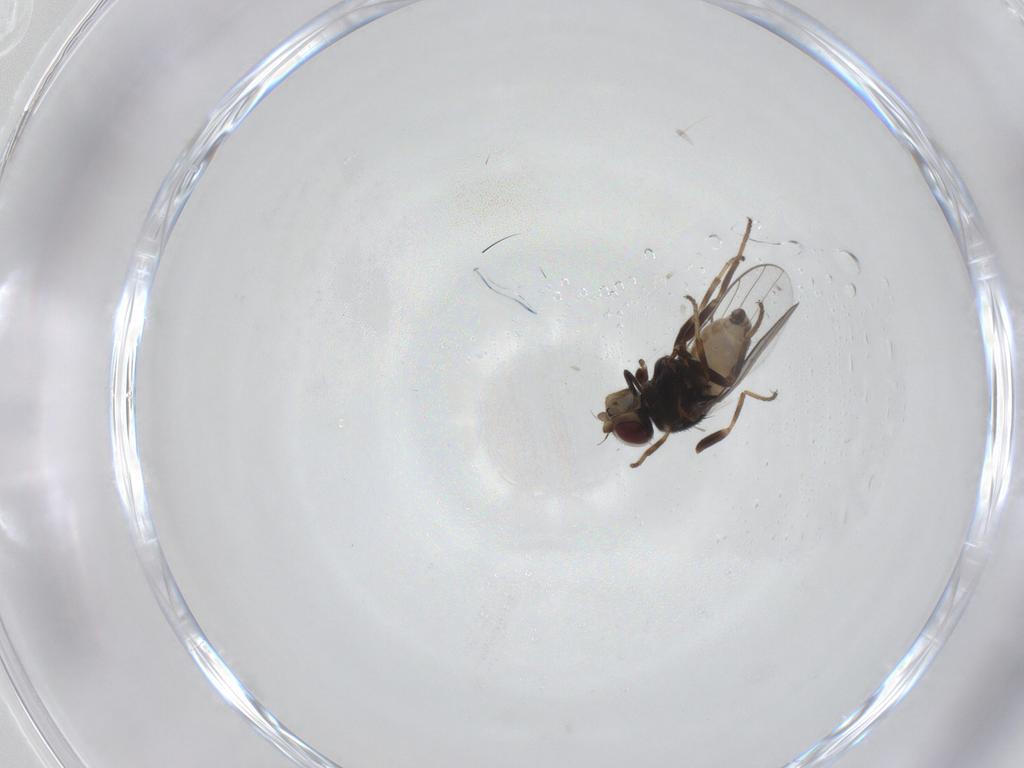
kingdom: Animalia
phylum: Arthropoda
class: Insecta
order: Diptera
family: Chloropidae
